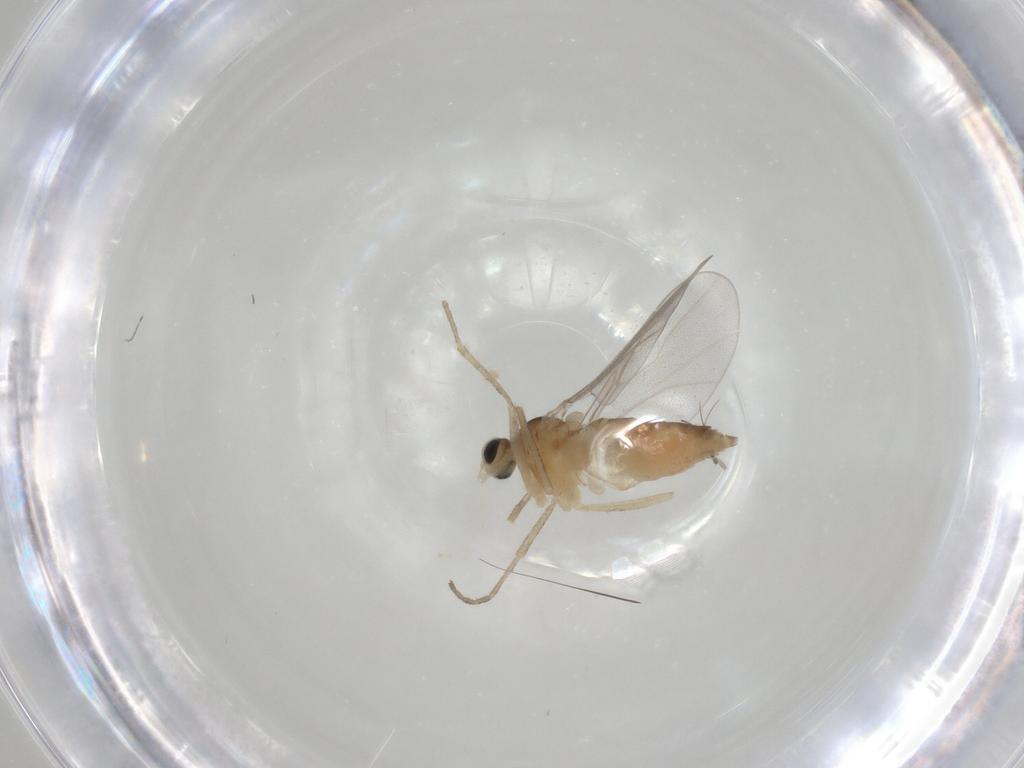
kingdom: Animalia
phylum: Arthropoda
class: Insecta
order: Diptera
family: Cecidomyiidae
